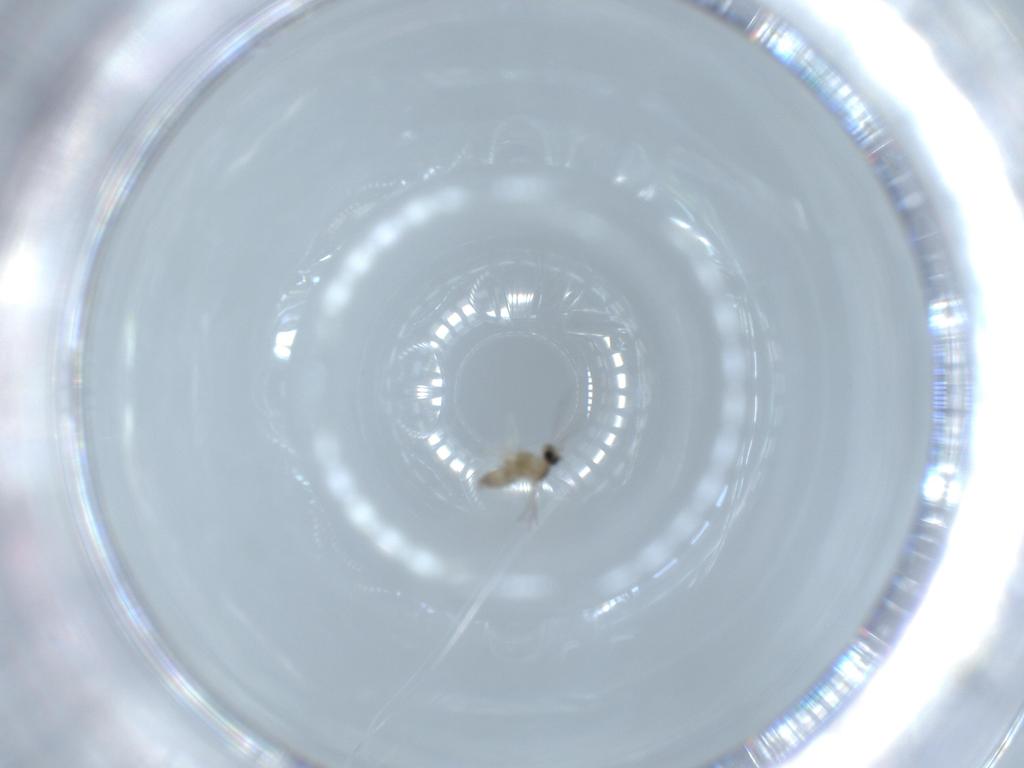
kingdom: Animalia
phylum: Arthropoda
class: Insecta
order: Diptera
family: Cecidomyiidae
